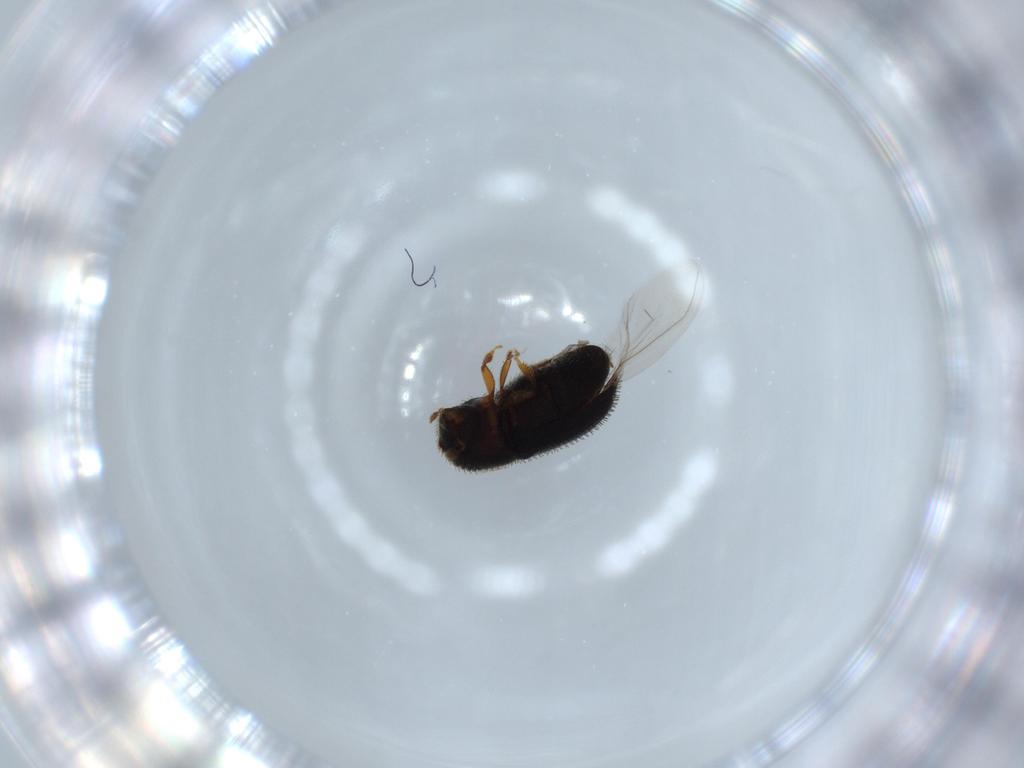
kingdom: Animalia
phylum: Arthropoda
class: Insecta
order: Coleoptera
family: Curculionidae
